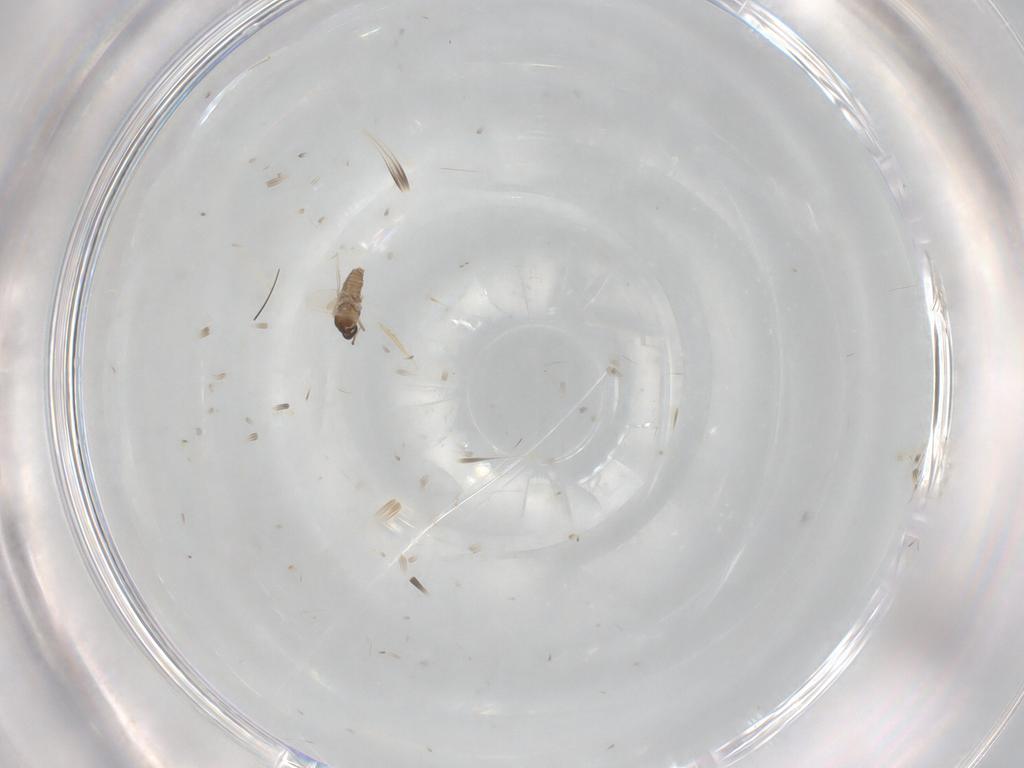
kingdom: Animalia
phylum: Arthropoda
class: Insecta
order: Diptera
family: Cecidomyiidae
